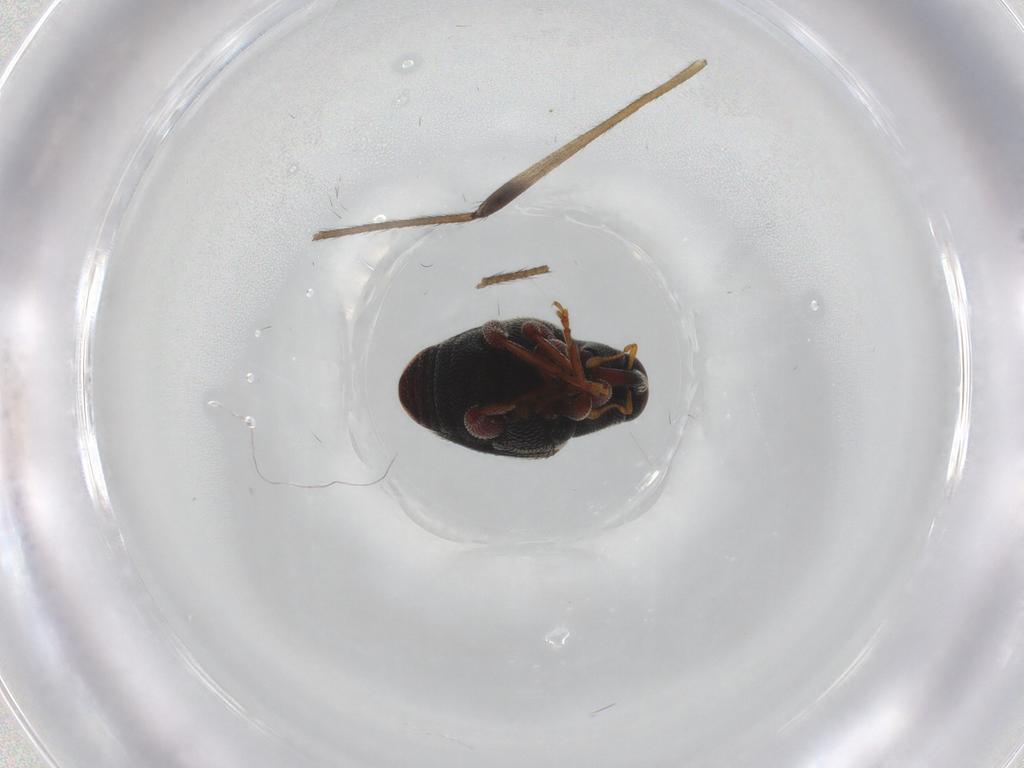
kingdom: Animalia
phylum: Arthropoda
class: Insecta
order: Coleoptera
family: Curculionidae
